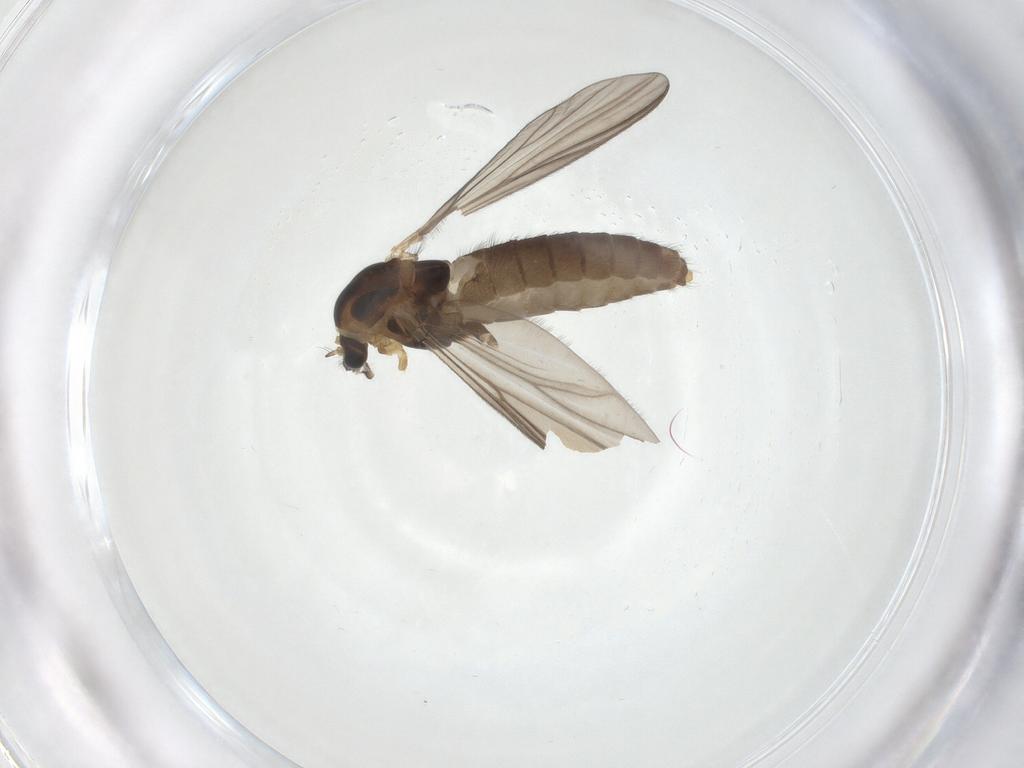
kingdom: Animalia
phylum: Arthropoda
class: Insecta
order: Diptera
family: Chironomidae
